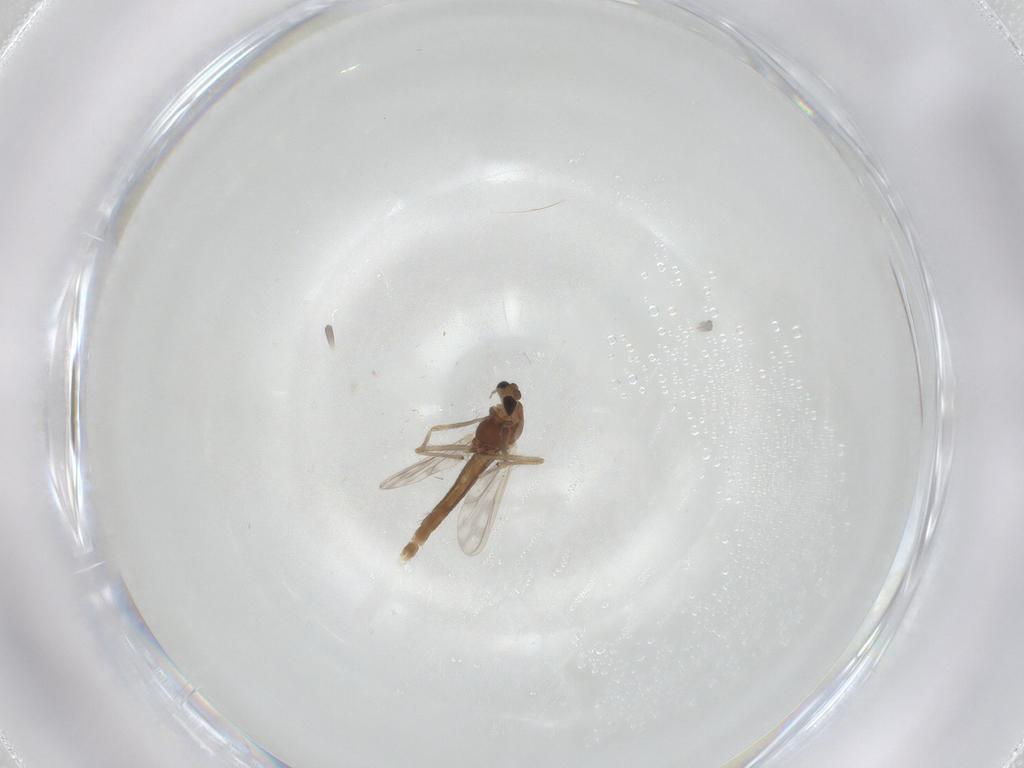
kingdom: Animalia
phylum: Arthropoda
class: Insecta
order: Diptera
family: Chironomidae
